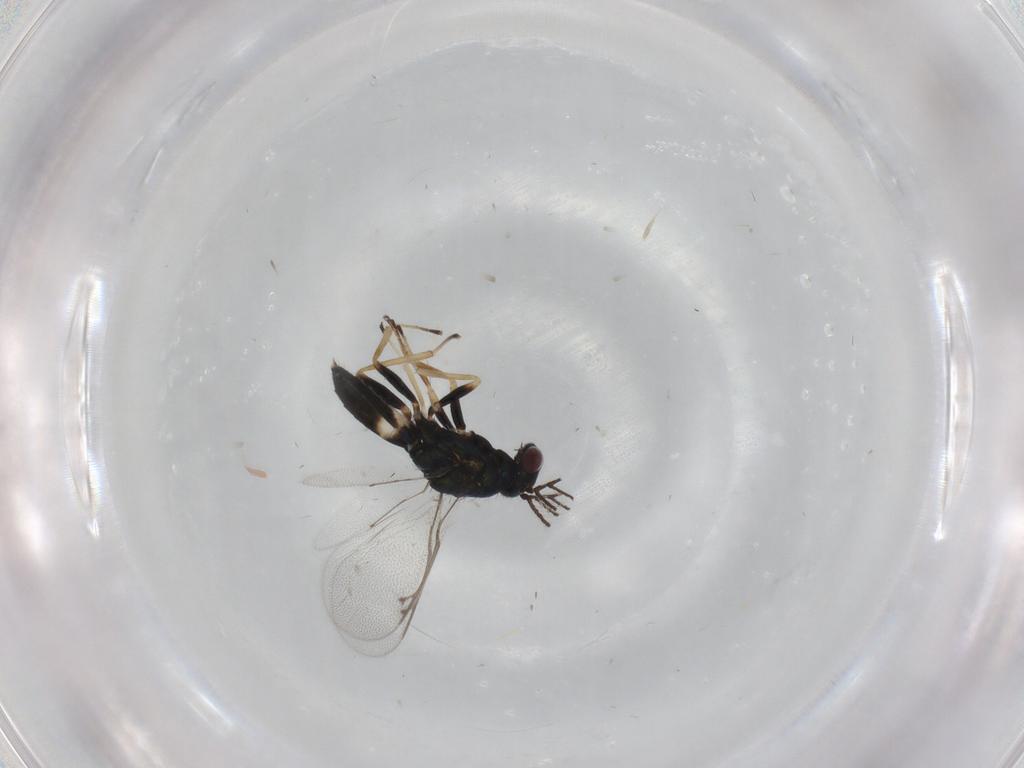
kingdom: Animalia
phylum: Arthropoda
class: Insecta
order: Hymenoptera
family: Eulophidae
